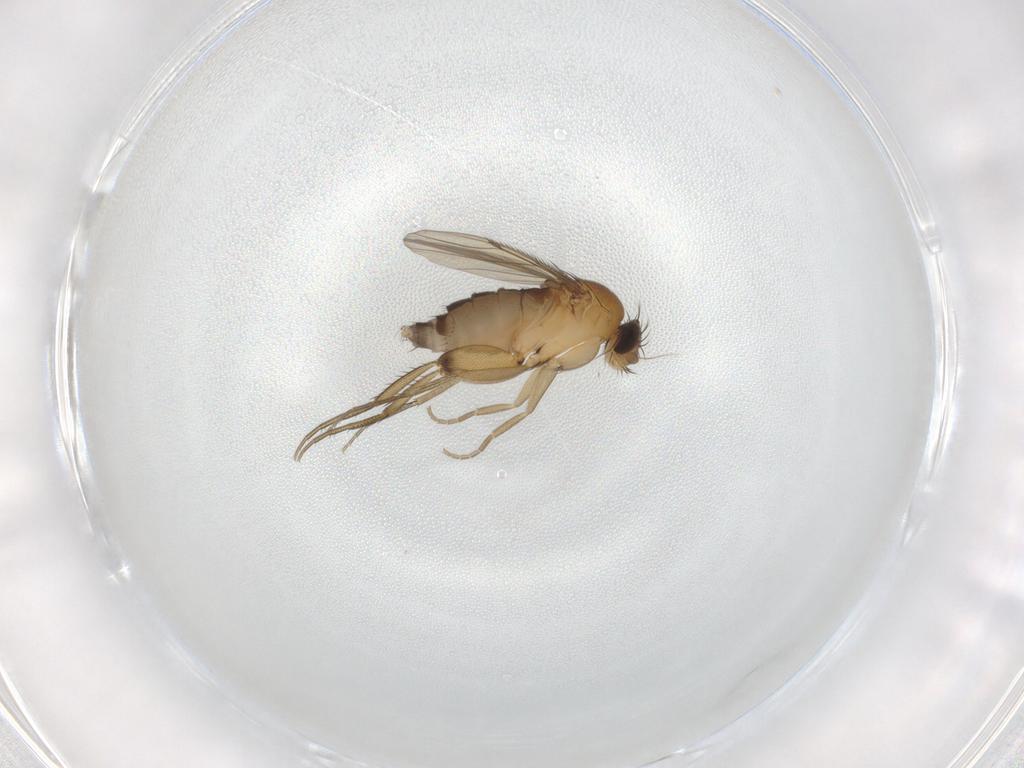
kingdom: Animalia
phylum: Arthropoda
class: Insecta
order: Diptera
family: Phoridae
